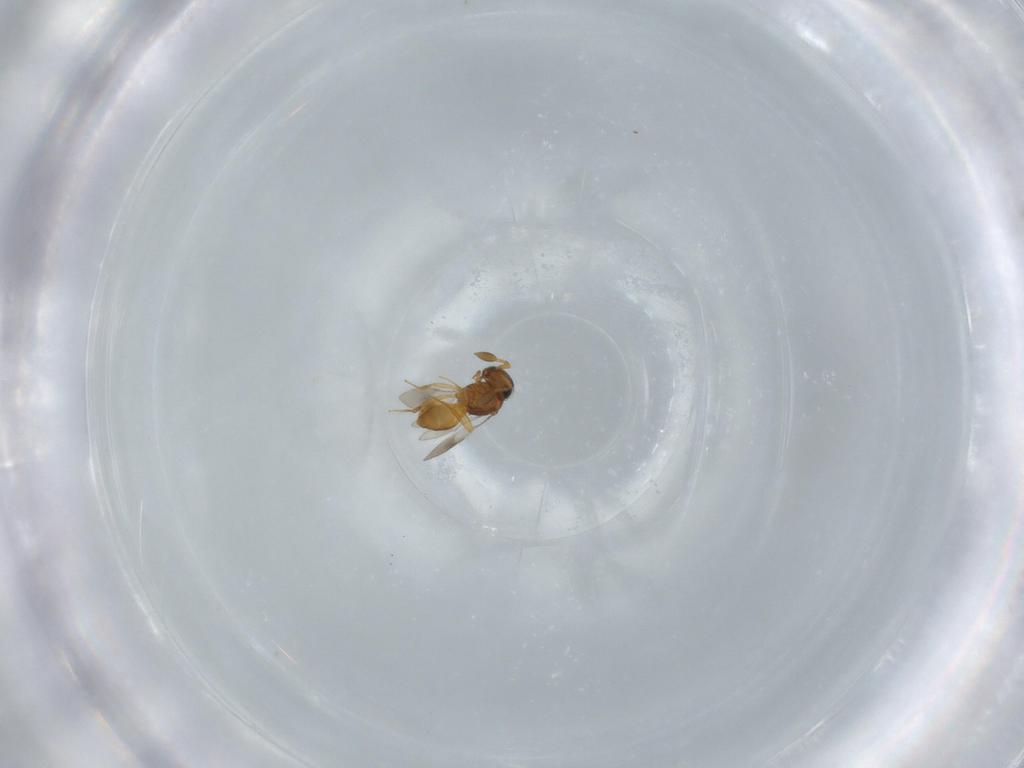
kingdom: Animalia
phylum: Arthropoda
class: Insecta
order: Hymenoptera
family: Scelionidae
